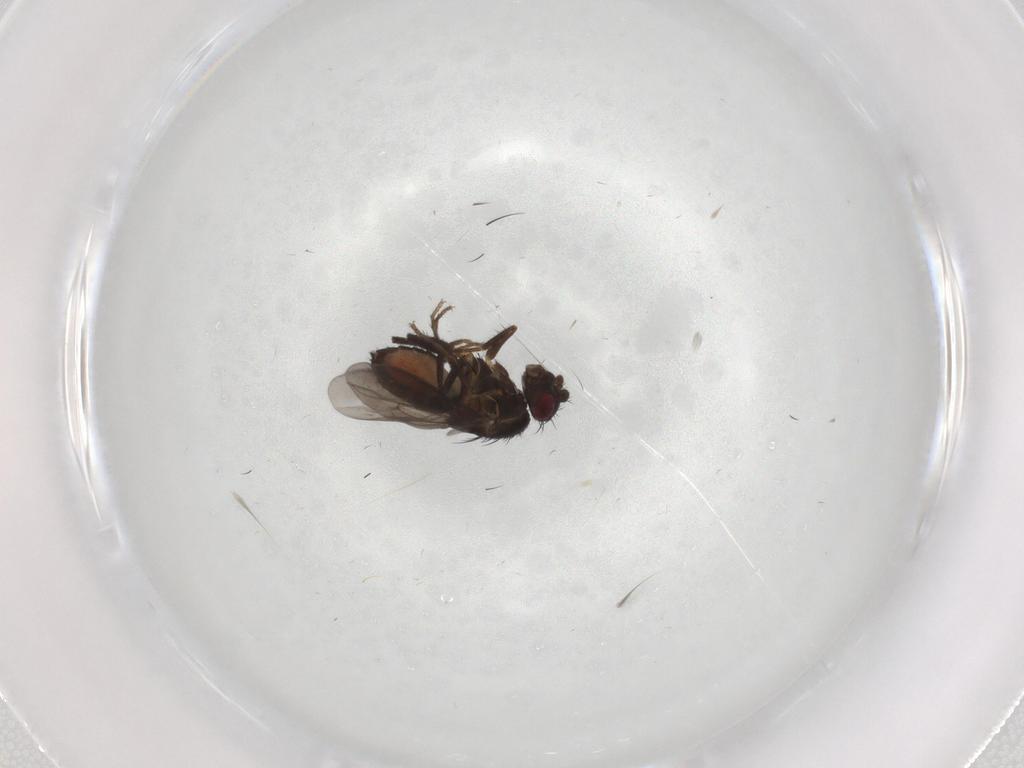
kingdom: Animalia
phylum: Arthropoda
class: Insecta
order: Diptera
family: Sphaeroceridae
